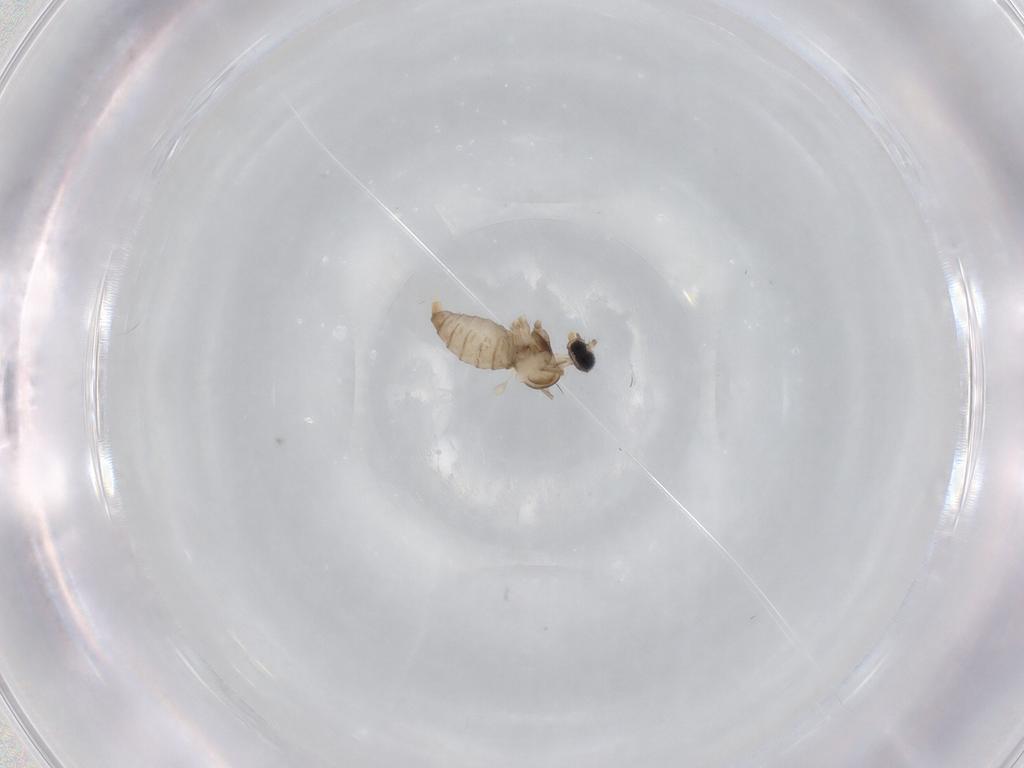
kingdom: Animalia
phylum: Arthropoda
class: Insecta
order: Diptera
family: Cecidomyiidae
